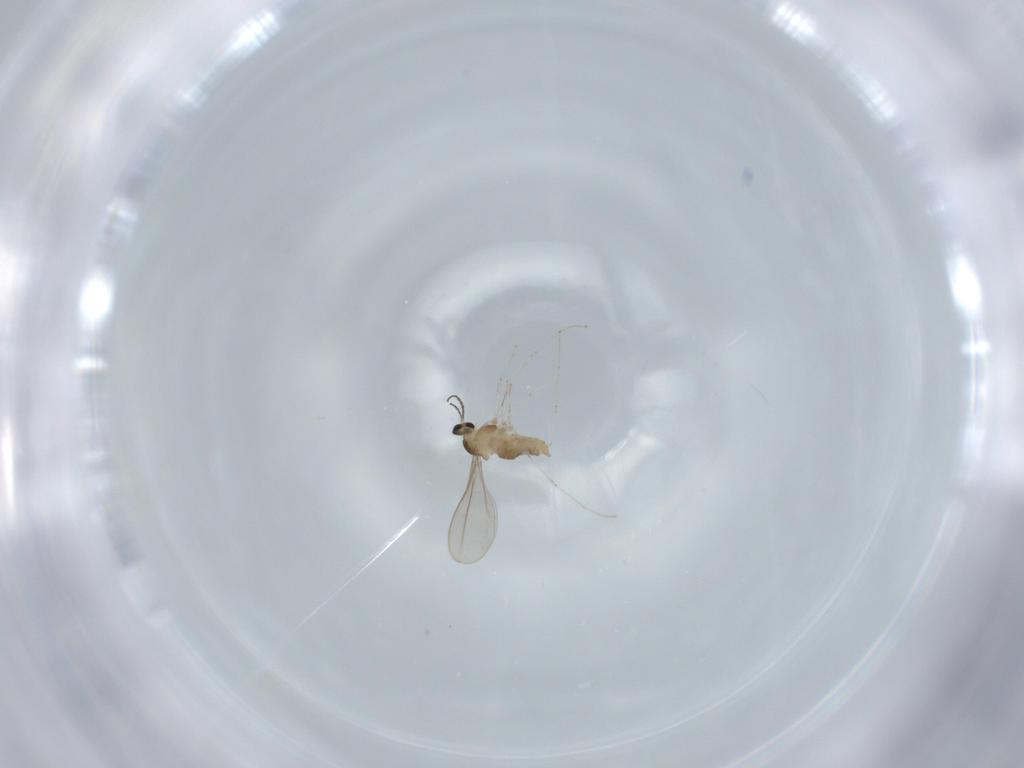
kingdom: Animalia
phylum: Arthropoda
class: Insecta
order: Diptera
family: Cecidomyiidae
